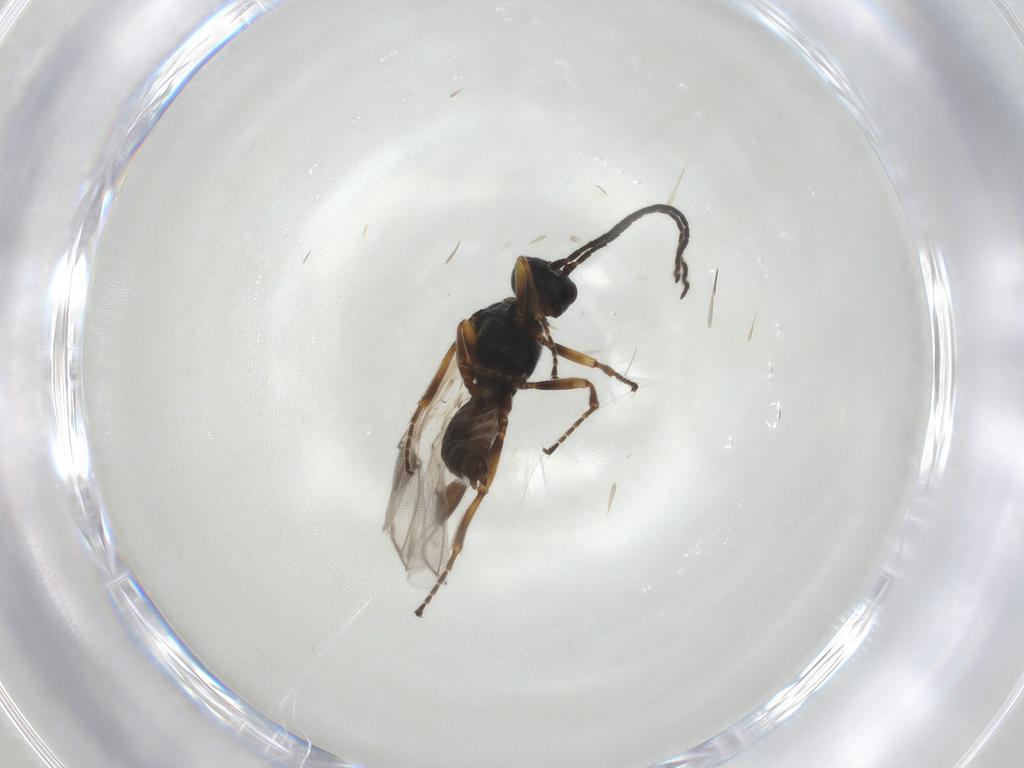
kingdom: Animalia
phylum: Arthropoda
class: Insecta
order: Hymenoptera
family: Braconidae
